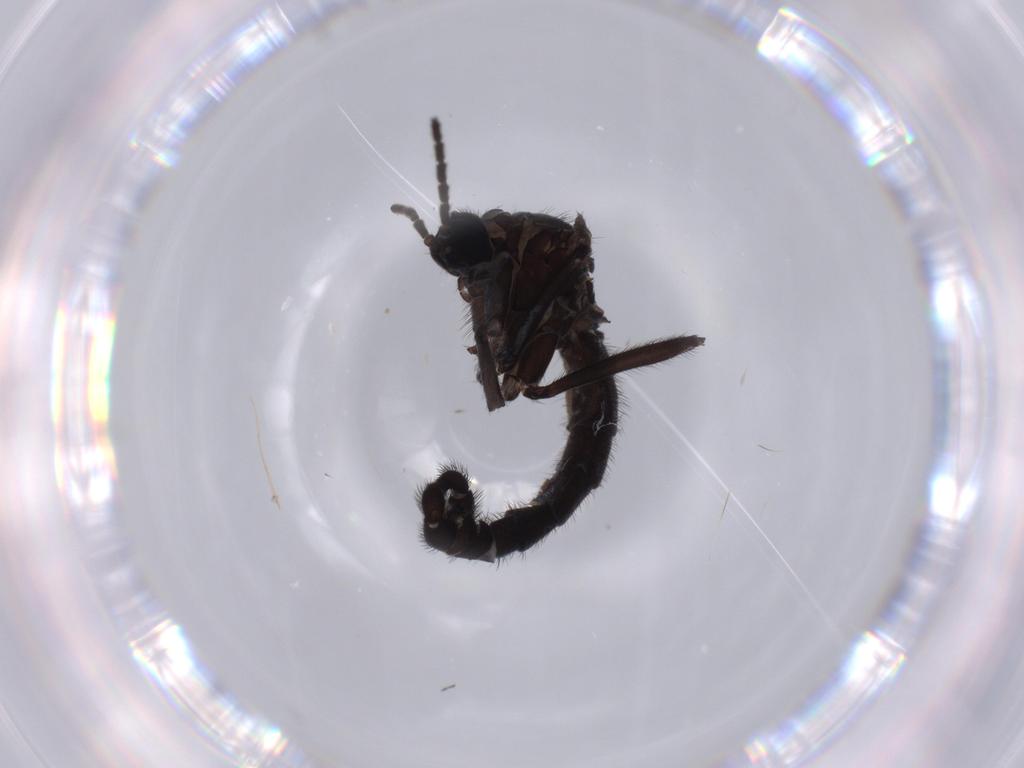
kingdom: Animalia
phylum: Arthropoda
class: Insecta
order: Diptera
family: Sciaridae
